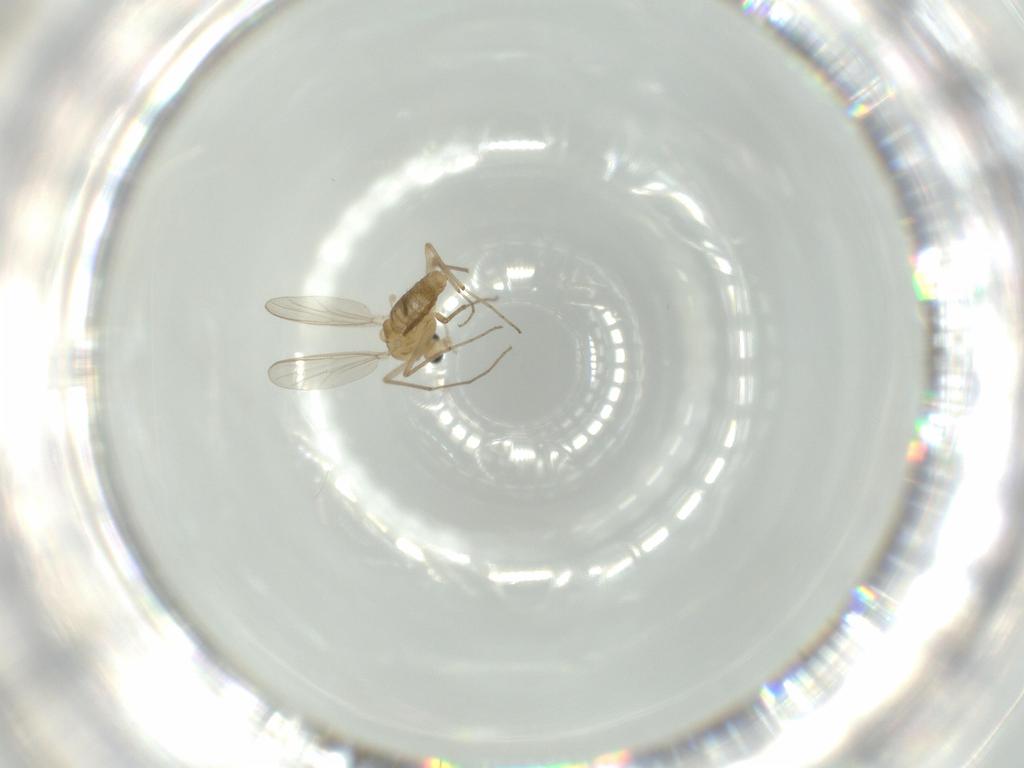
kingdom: Animalia
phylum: Arthropoda
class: Insecta
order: Diptera
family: Chironomidae
